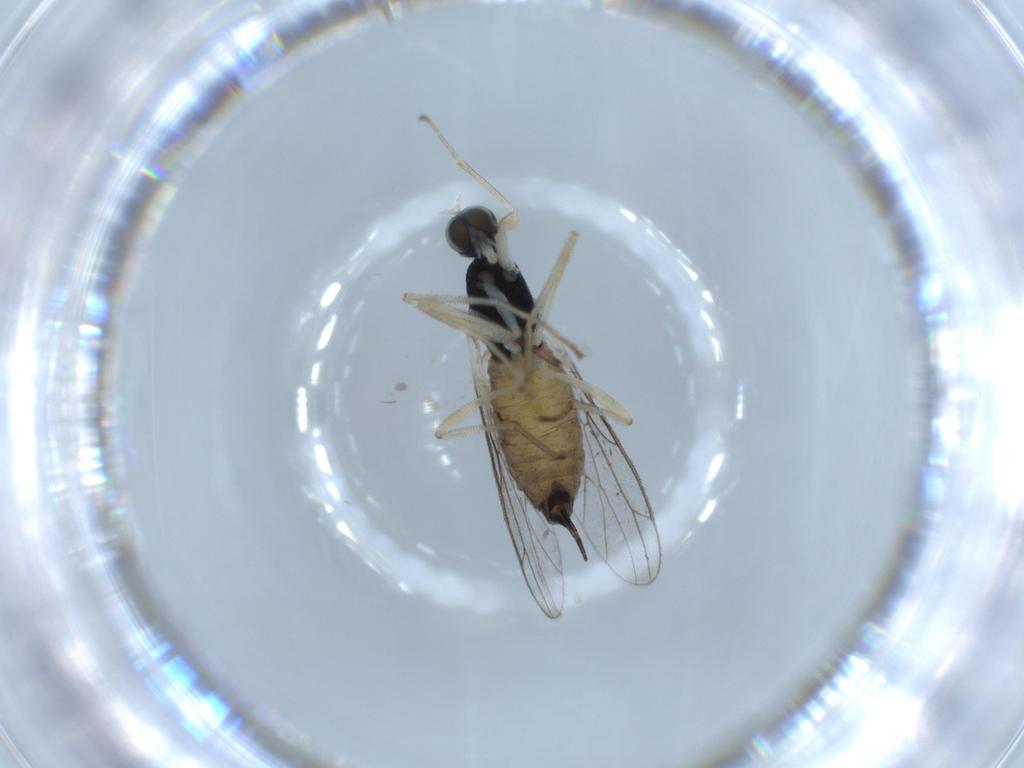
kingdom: Animalia
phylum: Arthropoda
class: Insecta
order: Diptera
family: Empididae
